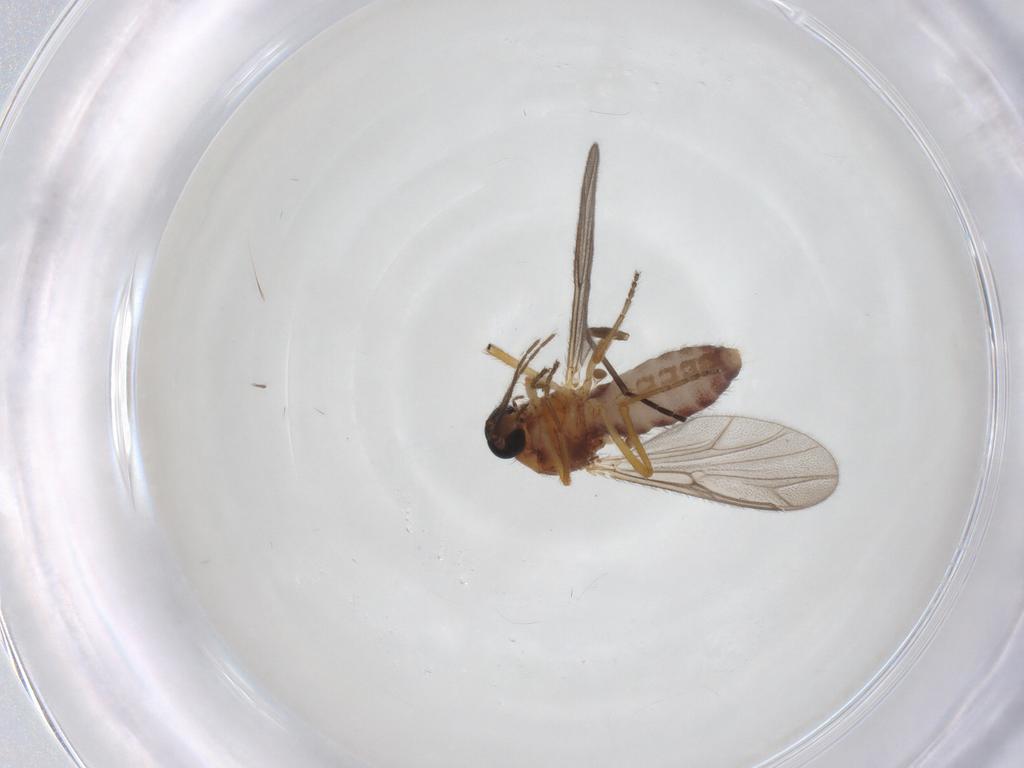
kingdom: Animalia
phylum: Arthropoda
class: Insecta
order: Diptera
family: Ceratopogonidae
